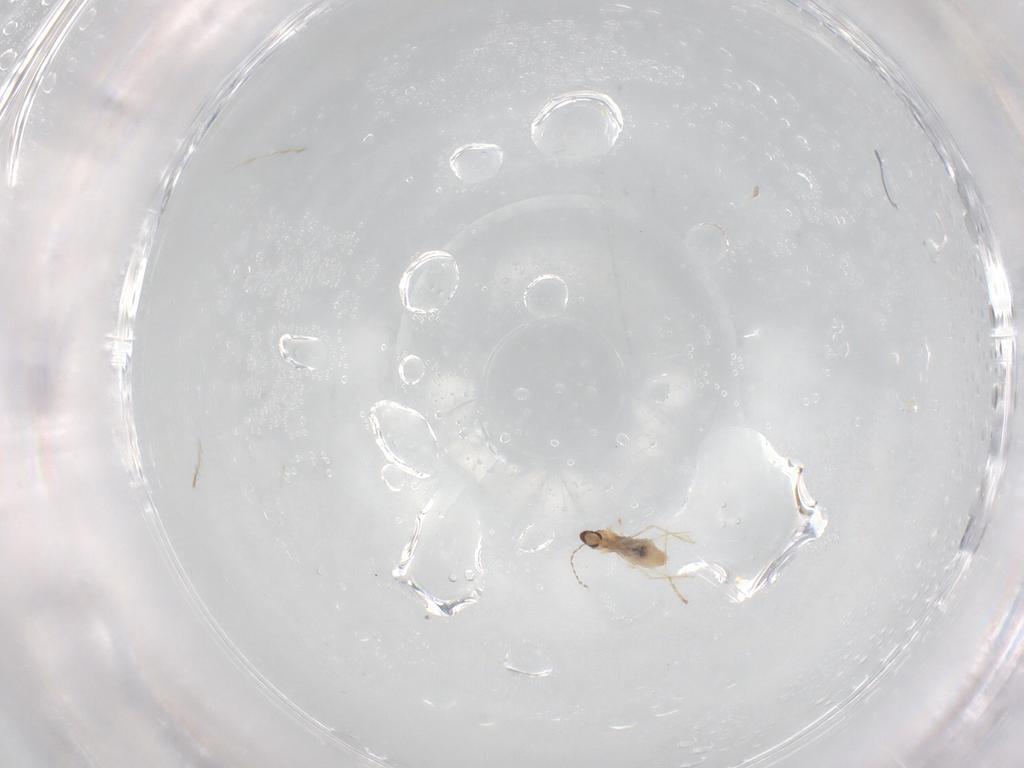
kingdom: Animalia
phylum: Arthropoda
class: Insecta
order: Diptera
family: Cecidomyiidae
